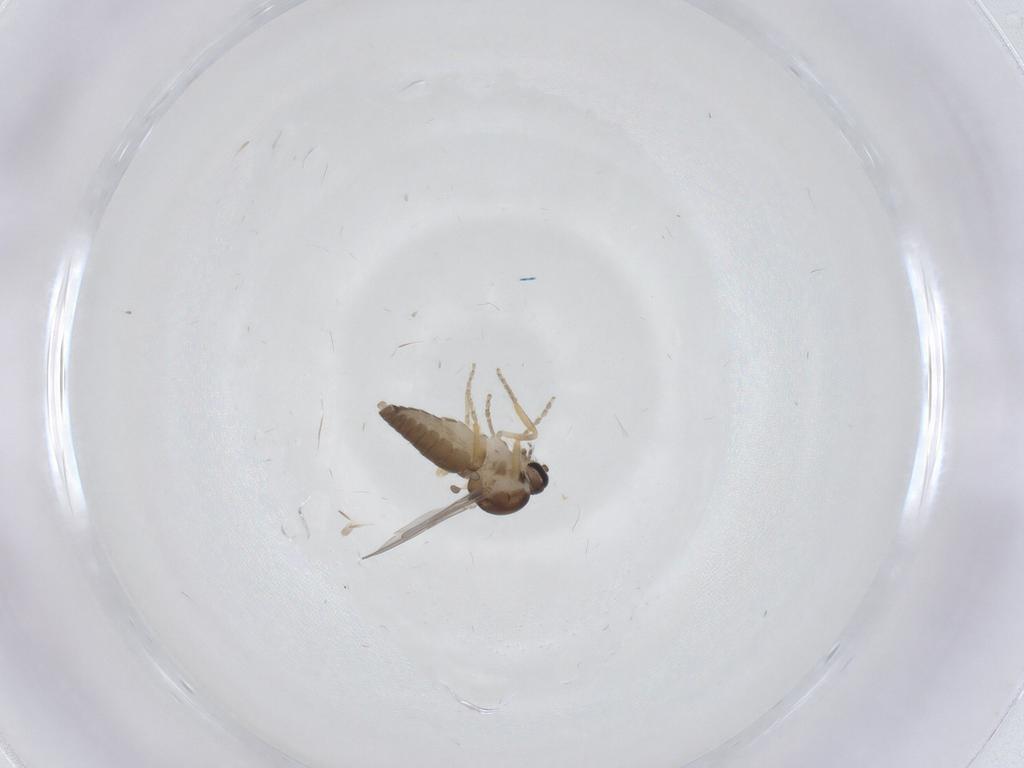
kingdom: Animalia
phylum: Arthropoda
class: Insecta
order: Diptera
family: Ceratopogonidae
